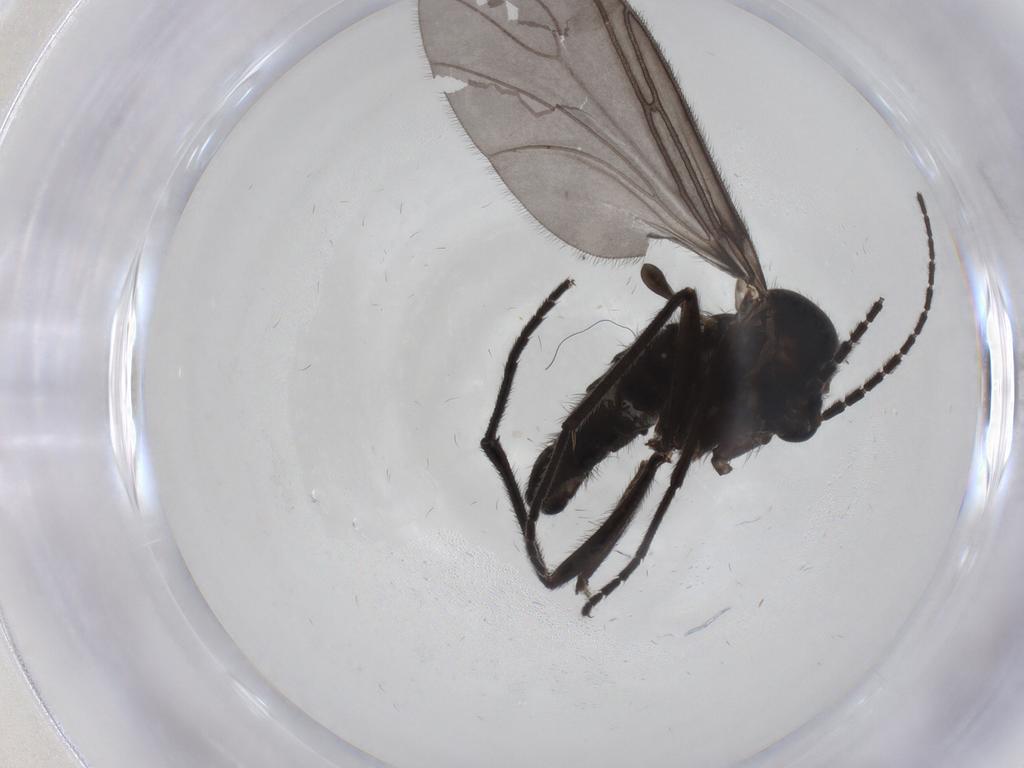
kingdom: Animalia
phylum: Arthropoda
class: Insecta
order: Diptera
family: Sciaridae
